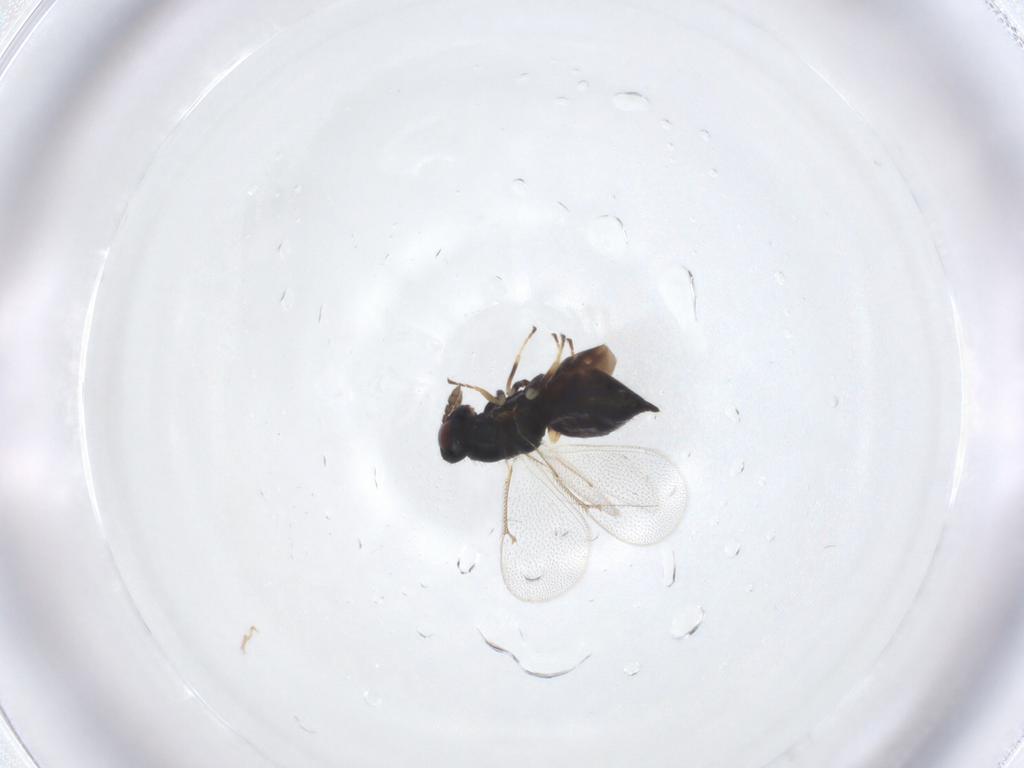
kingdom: Animalia
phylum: Arthropoda
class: Insecta
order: Hymenoptera
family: Eulophidae
